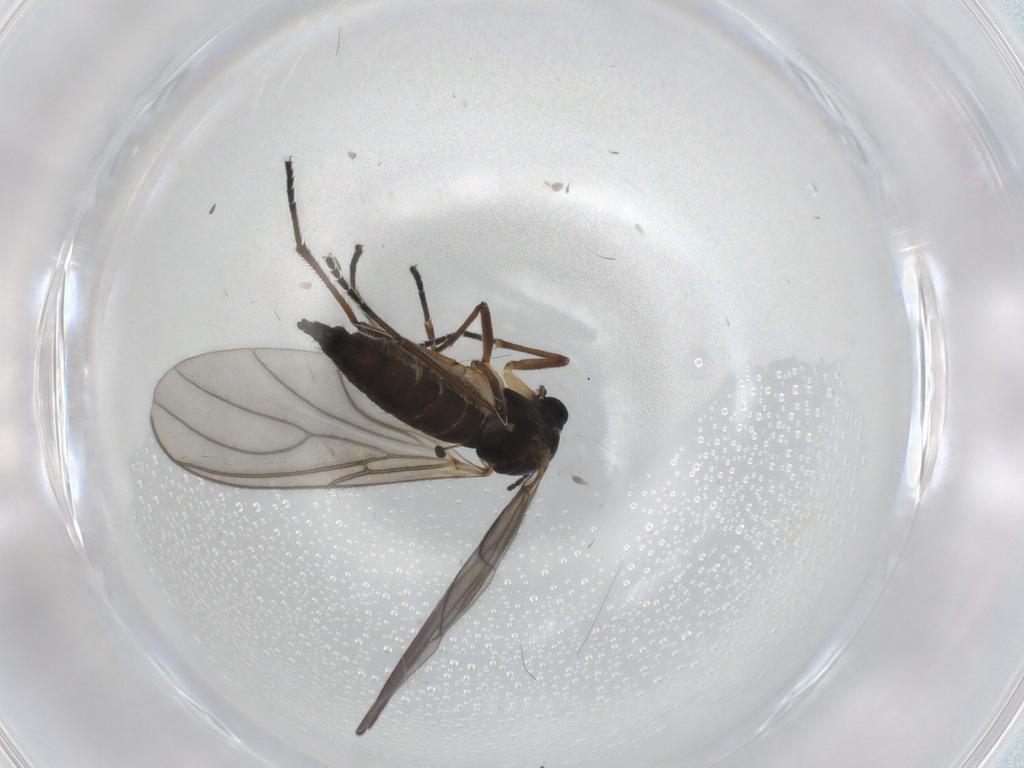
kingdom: Animalia
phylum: Arthropoda
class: Insecta
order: Diptera
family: Sciaridae
